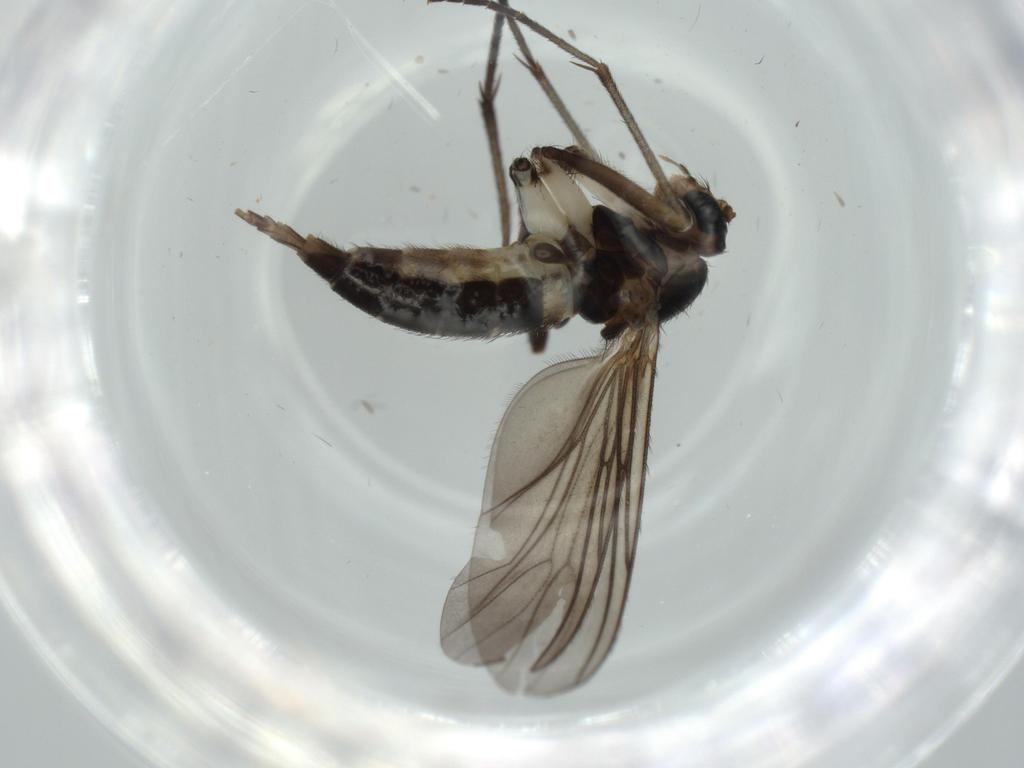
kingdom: Animalia
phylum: Arthropoda
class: Insecta
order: Diptera
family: Sciaridae
